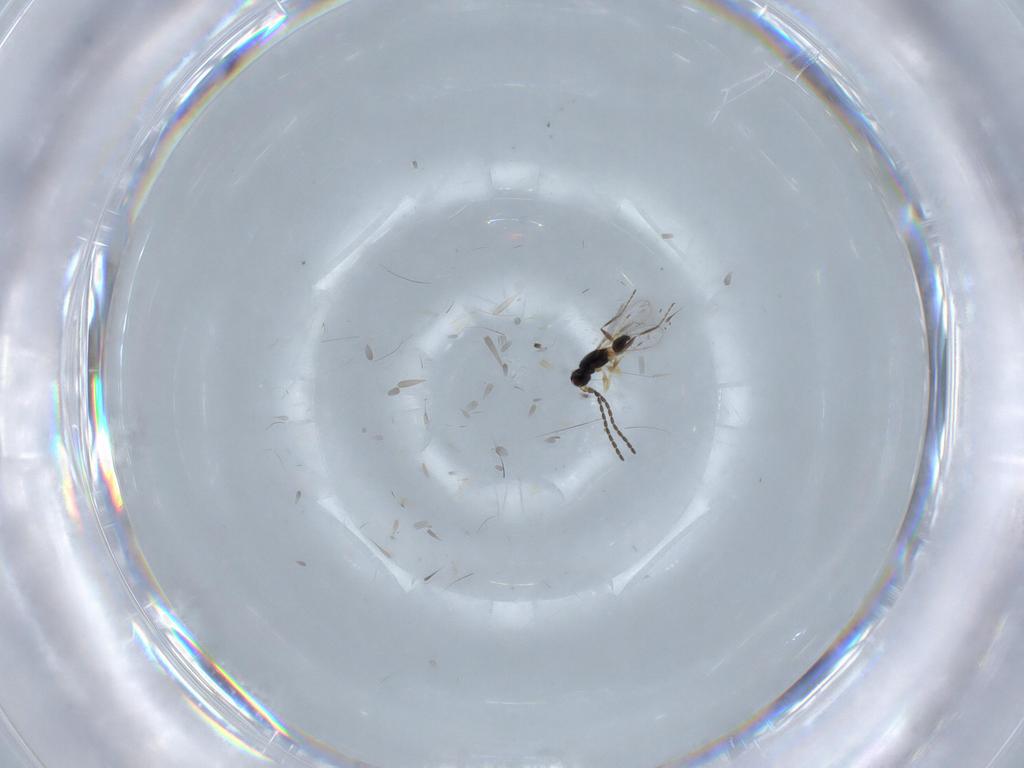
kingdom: Animalia
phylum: Arthropoda
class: Insecta
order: Hymenoptera
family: Mymaridae
